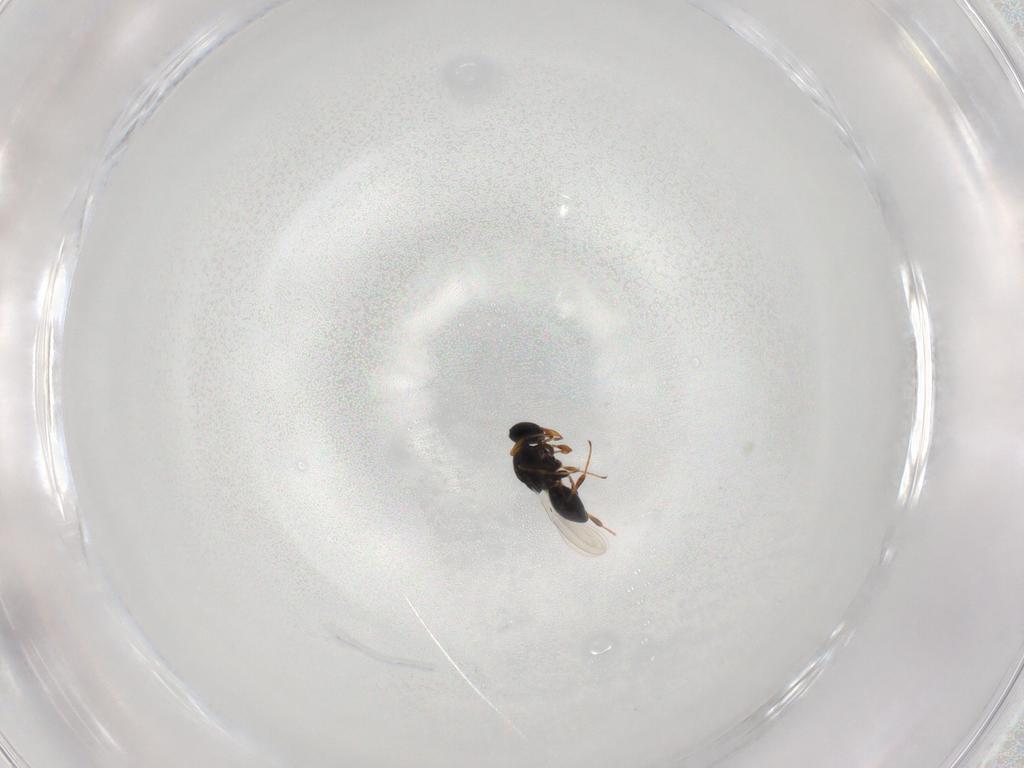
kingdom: Animalia
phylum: Arthropoda
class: Insecta
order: Hymenoptera
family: Platygastridae
